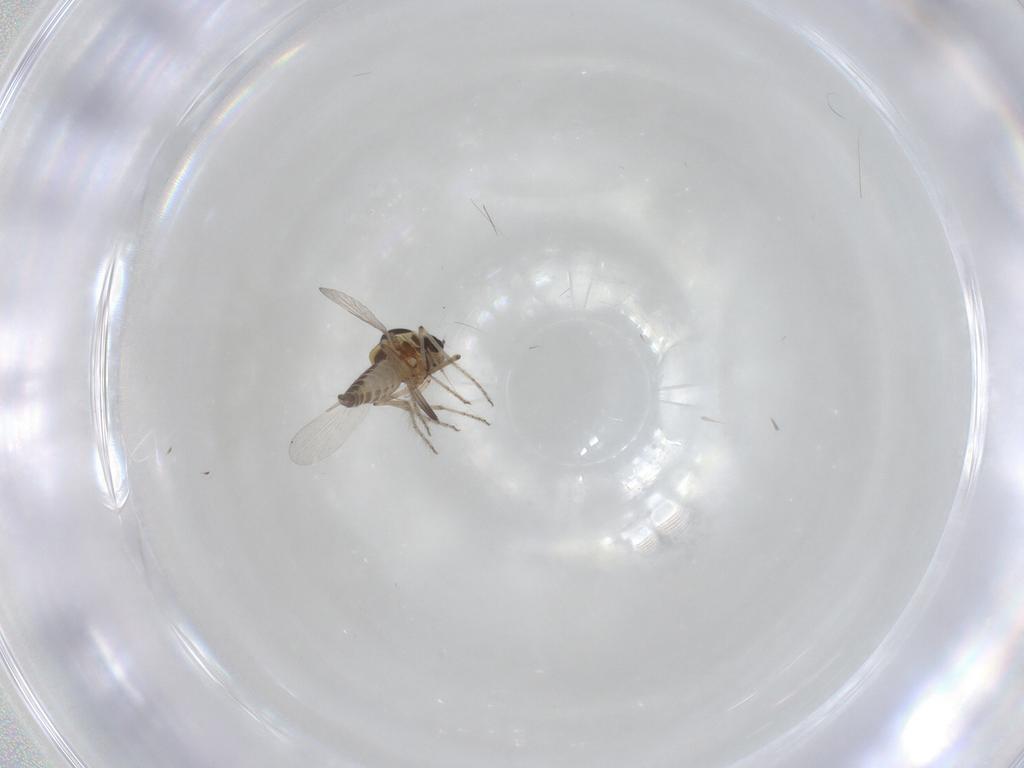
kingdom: Animalia
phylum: Arthropoda
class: Insecta
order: Diptera
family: Ceratopogonidae
